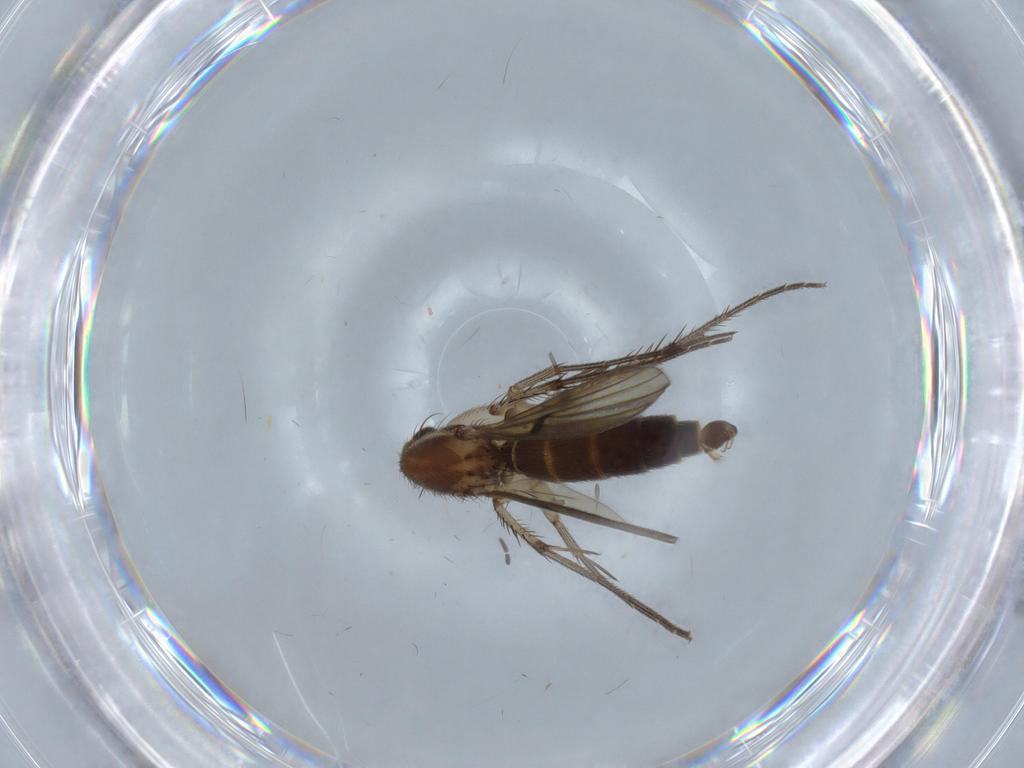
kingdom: Animalia
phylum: Arthropoda
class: Insecta
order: Diptera
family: Mycetophilidae
